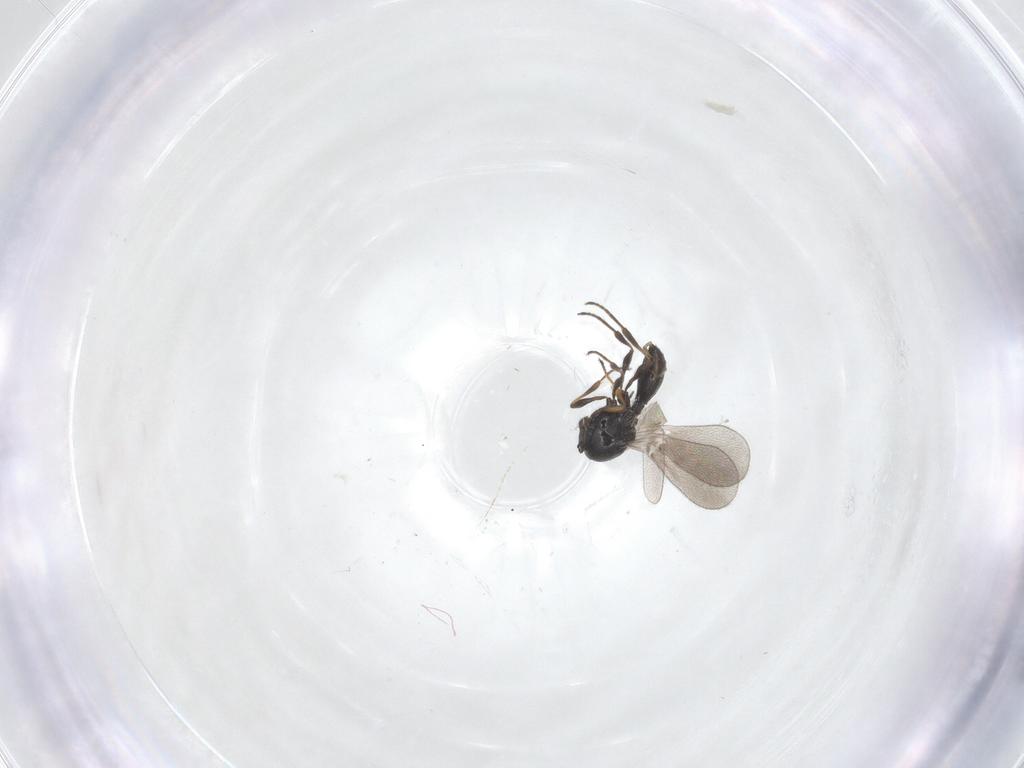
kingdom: Animalia
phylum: Arthropoda
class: Insecta
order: Hymenoptera
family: Platygastridae
